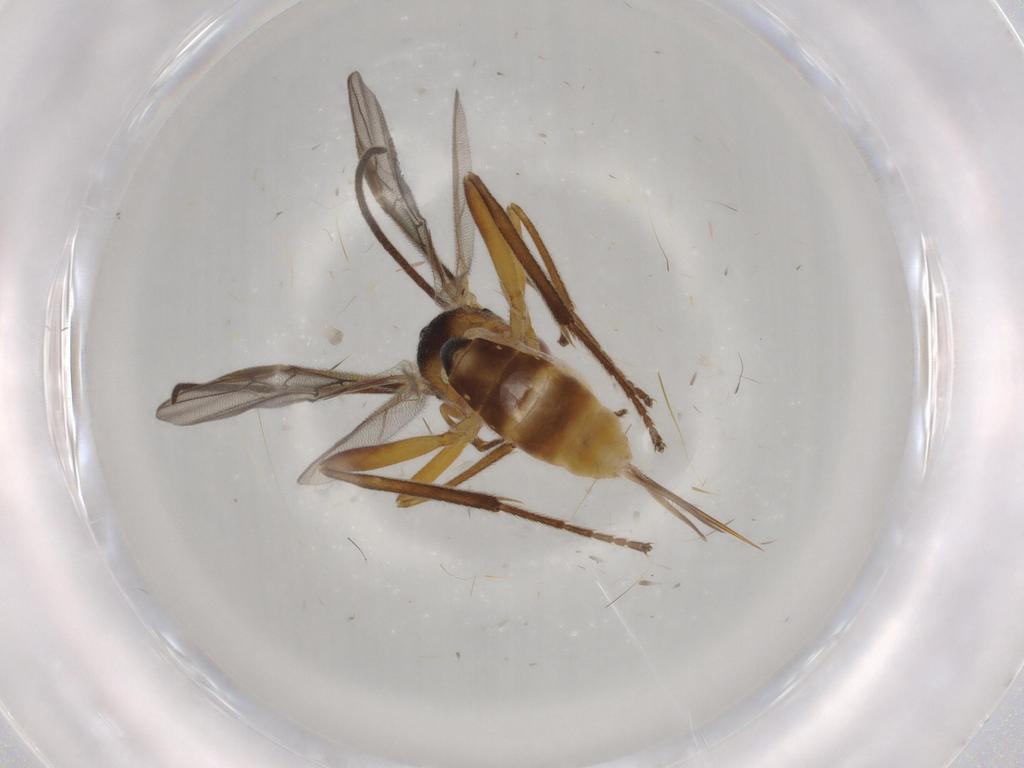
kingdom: Animalia
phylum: Arthropoda
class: Insecta
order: Hymenoptera
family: Braconidae
